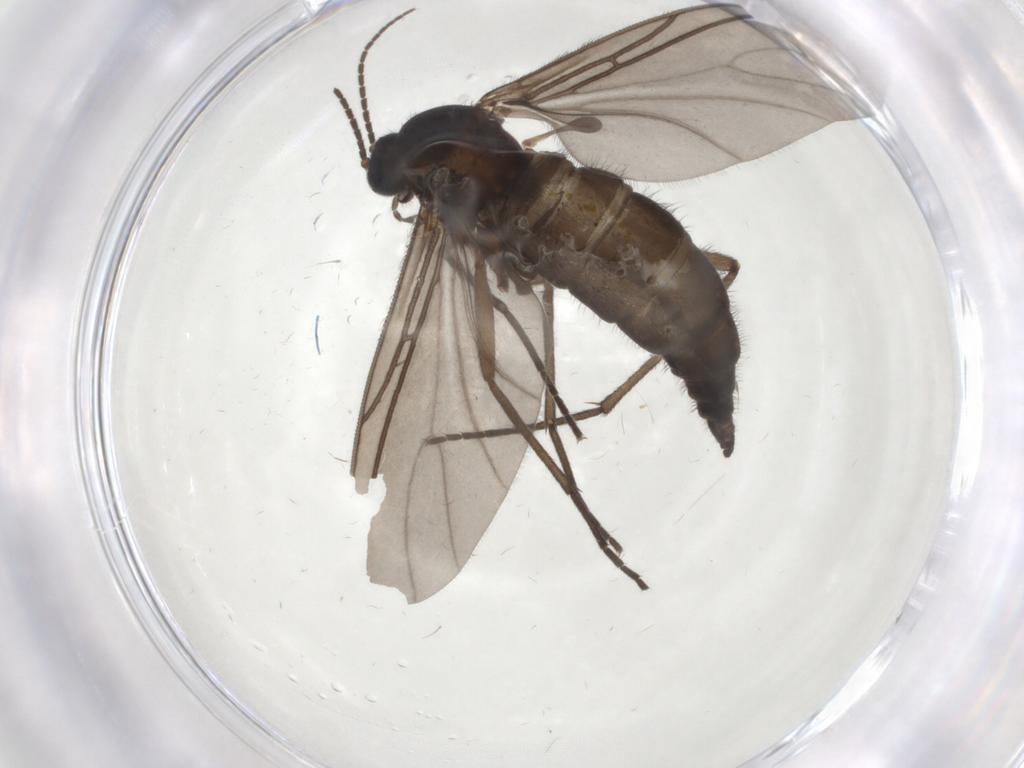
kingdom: Animalia
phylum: Arthropoda
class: Insecta
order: Diptera
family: Sciaridae
